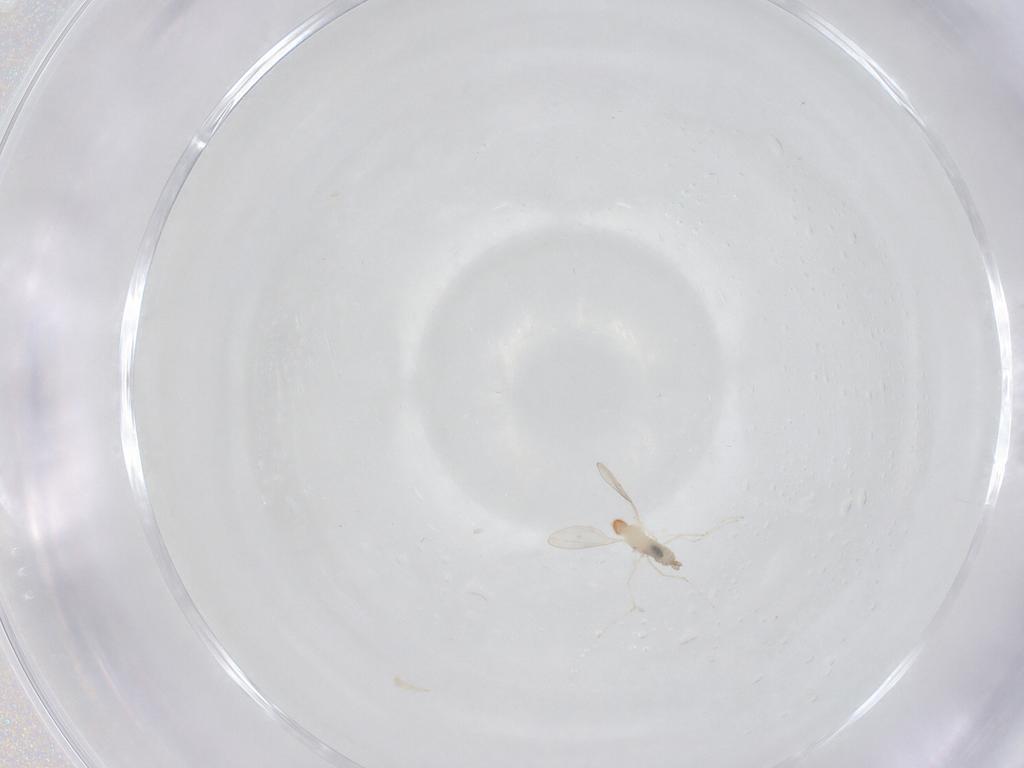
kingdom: Animalia
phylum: Arthropoda
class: Insecta
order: Diptera
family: Cecidomyiidae
